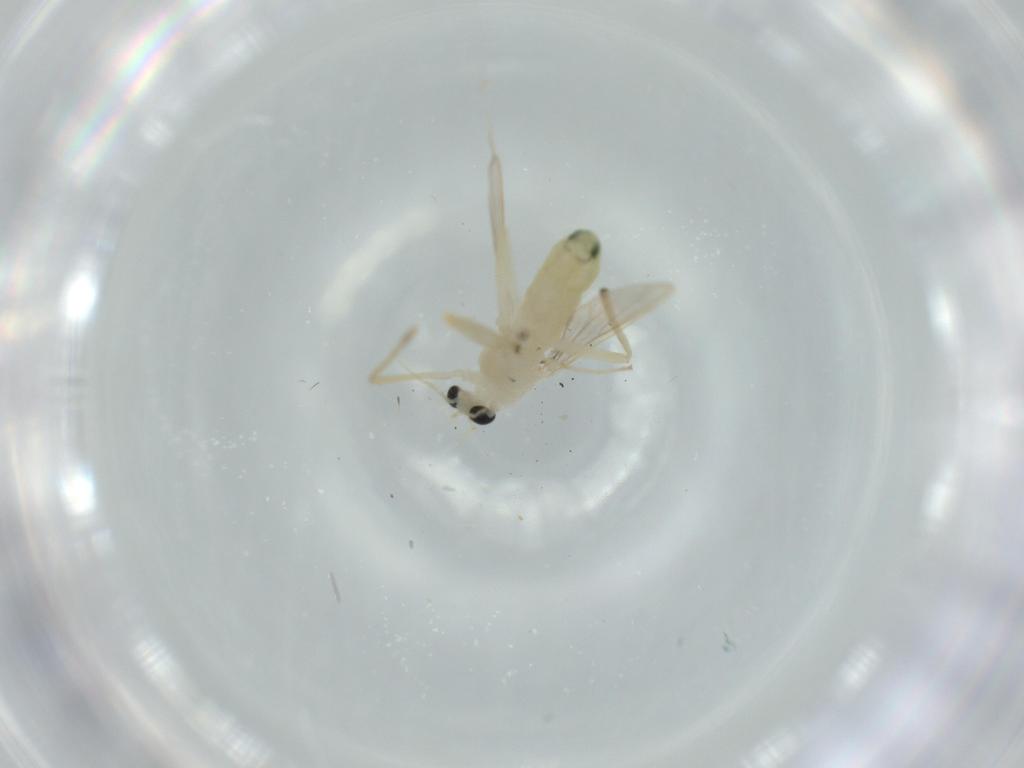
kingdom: Animalia
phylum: Arthropoda
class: Insecta
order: Diptera
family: Chironomidae
